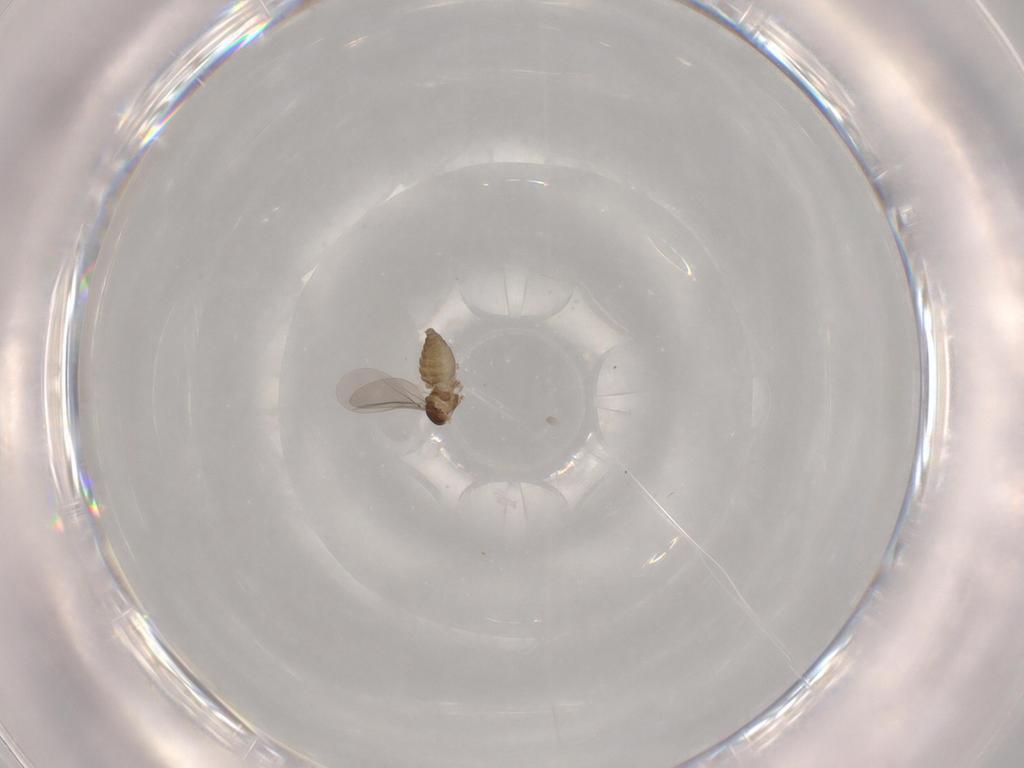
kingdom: Animalia
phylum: Arthropoda
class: Insecta
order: Diptera
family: Cecidomyiidae
